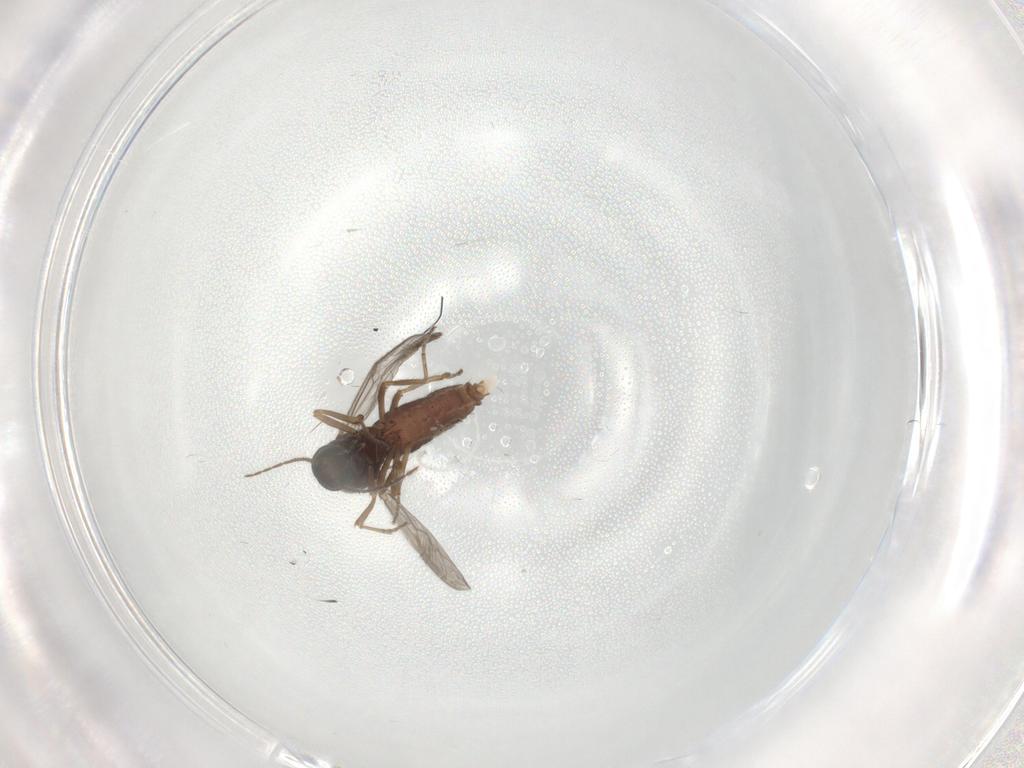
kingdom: Animalia
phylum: Arthropoda
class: Insecta
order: Diptera
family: Ceratopogonidae
